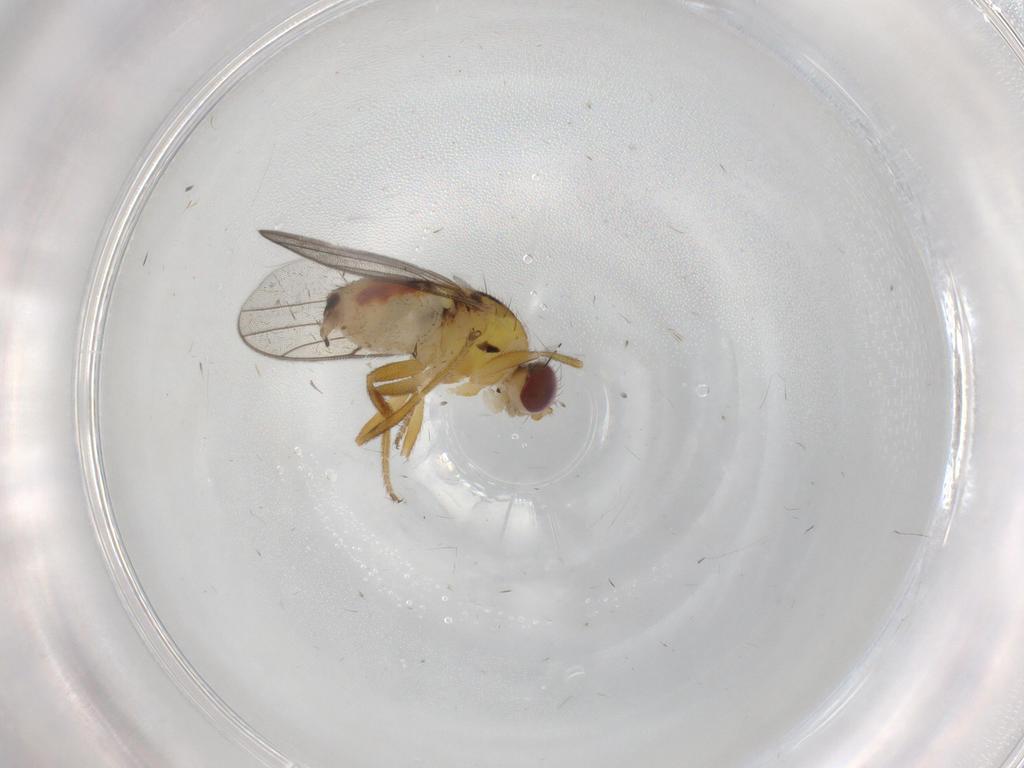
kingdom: Animalia
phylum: Arthropoda
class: Insecta
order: Diptera
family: Chloropidae
